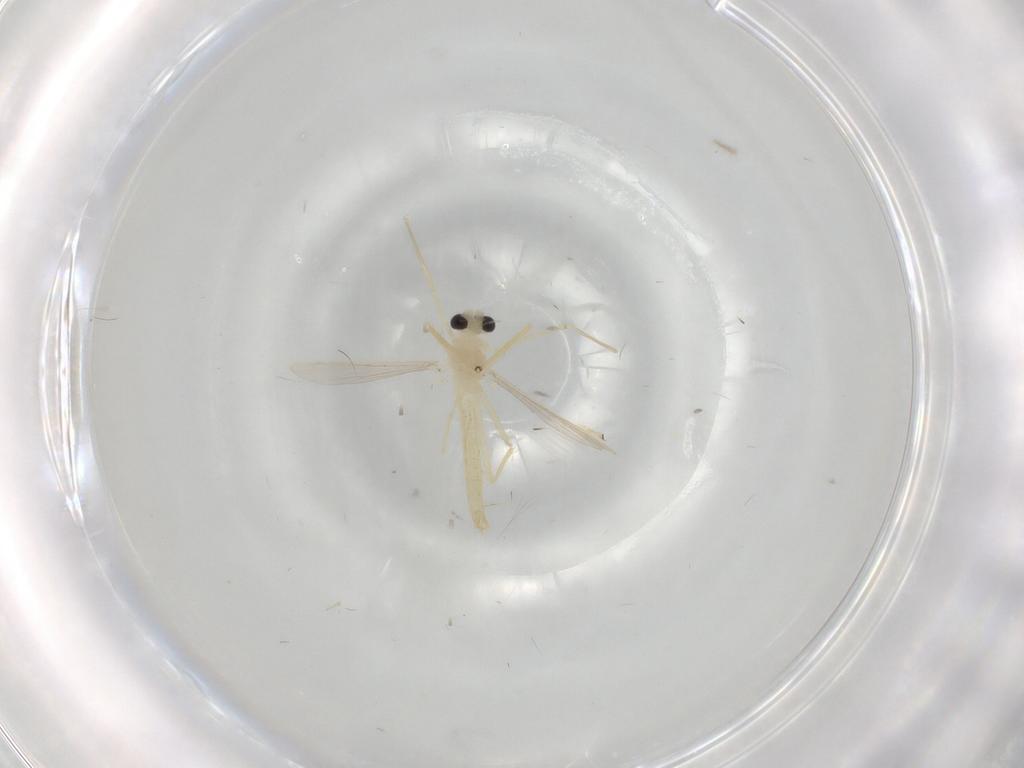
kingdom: Animalia
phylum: Arthropoda
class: Insecta
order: Diptera
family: Chironomidae
